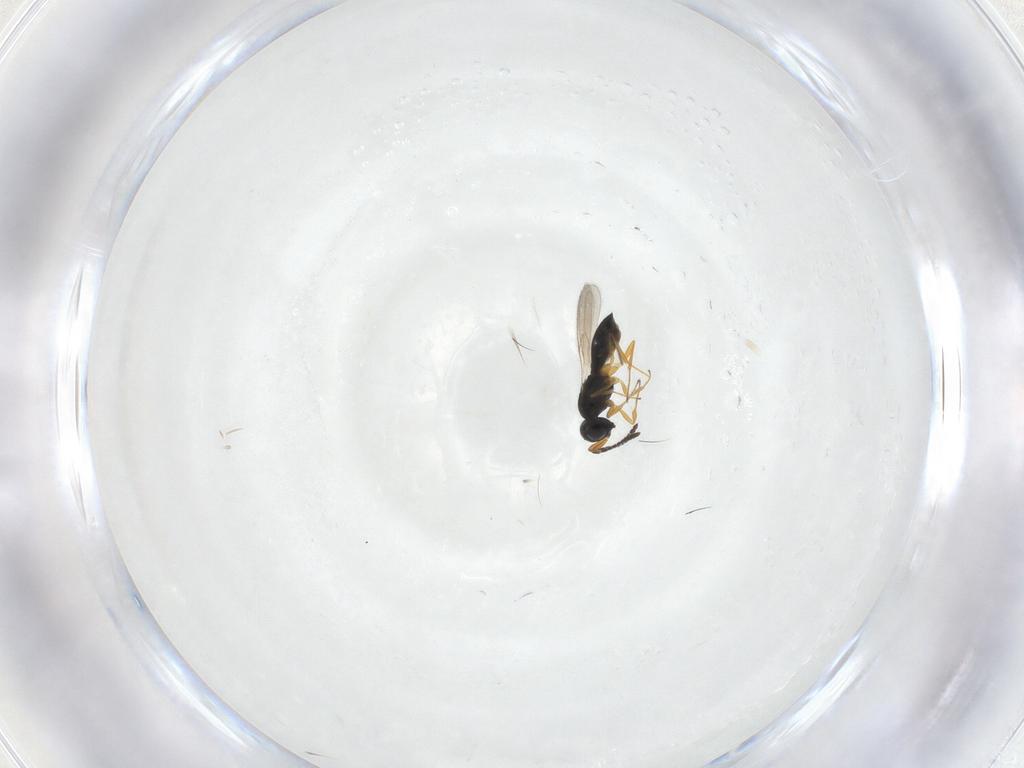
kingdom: Animalia
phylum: Arthropoda
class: Insecta
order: Hymenoptera
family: Scelionidae
